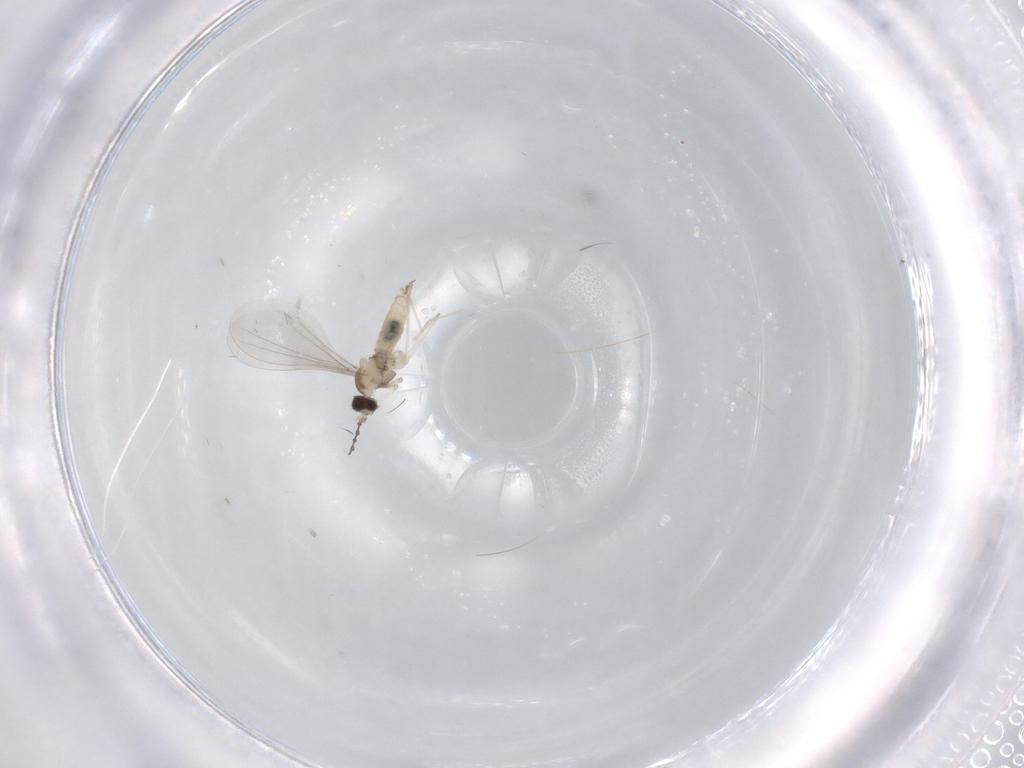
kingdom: Animalia
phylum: Arthropoda
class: Insecta
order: Diptera
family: Cecidomyiidae
